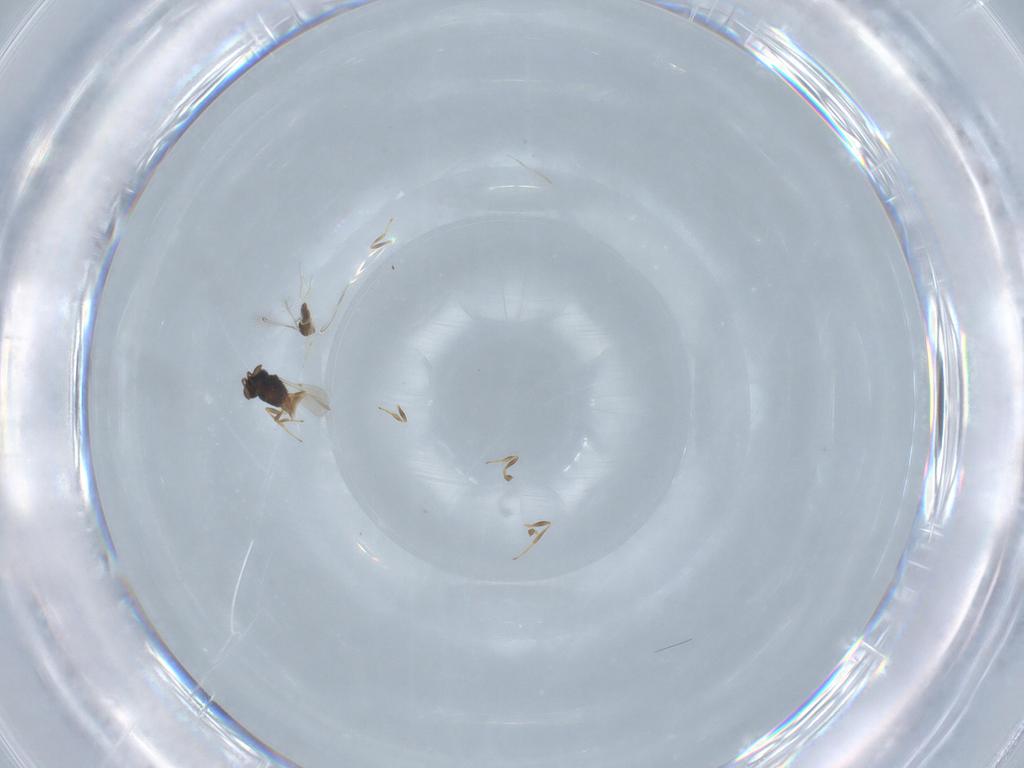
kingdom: Animalia
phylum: Arthropoda
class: Insecta
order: Hymenoptera
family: Scelionidae
